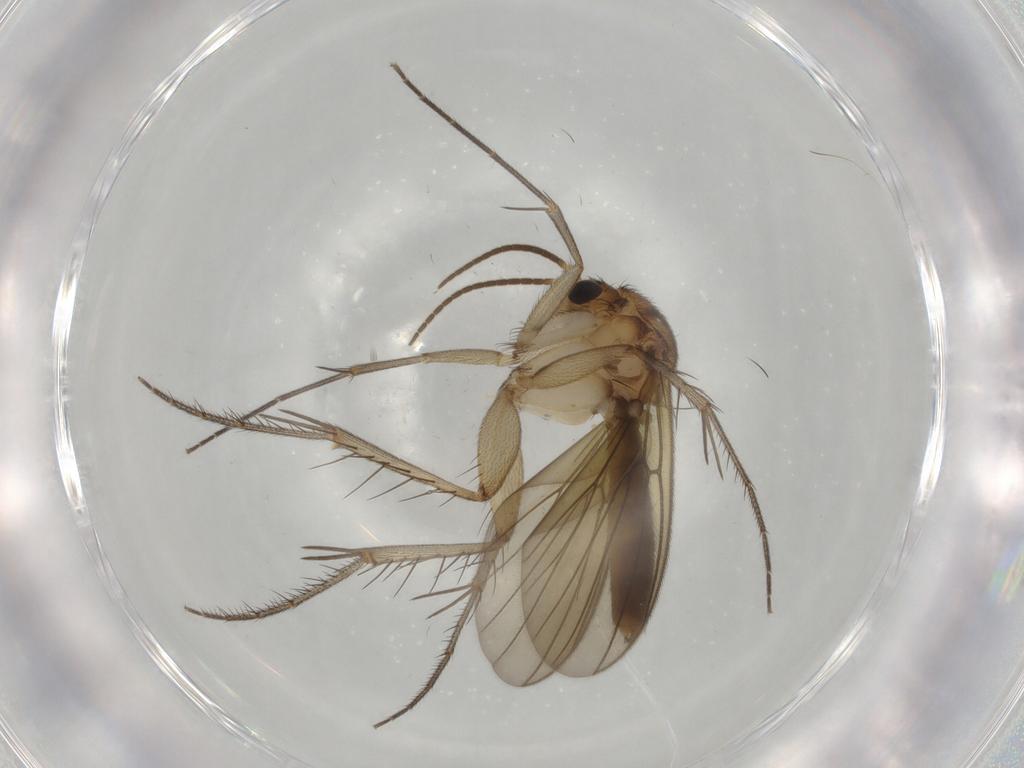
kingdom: Animalia
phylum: Arthropoda
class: Insecta
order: Diptera
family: Mycetophilidae
